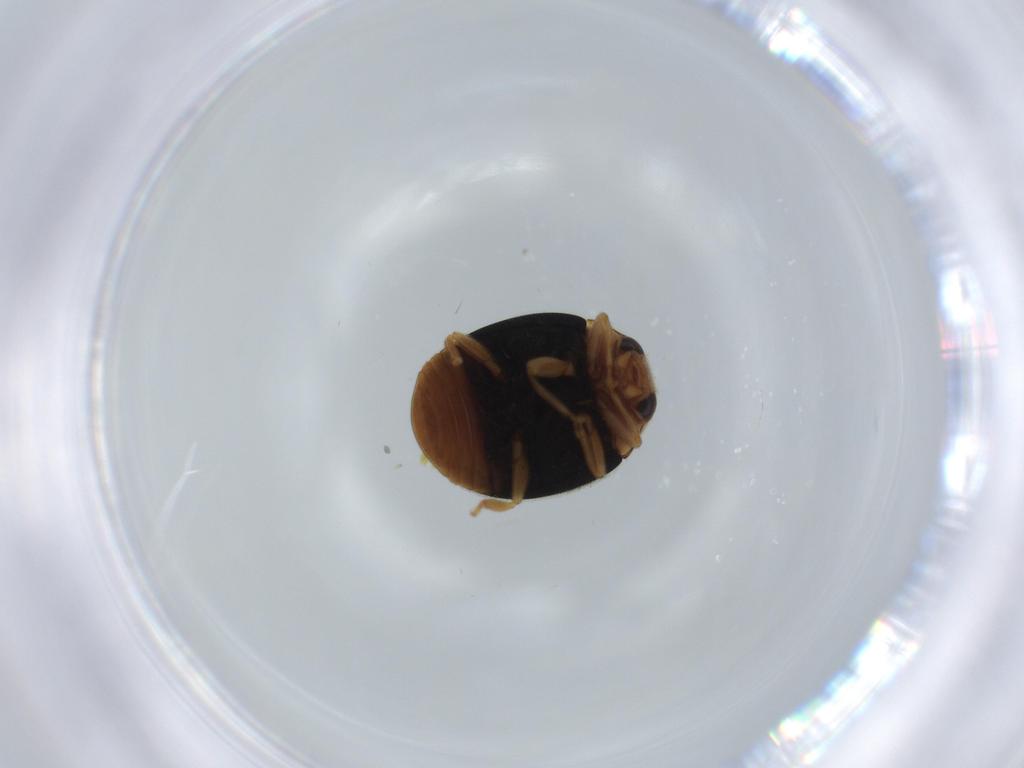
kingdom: Animalia
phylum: Arthropoda
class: Insecta
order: Coleoptera
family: Coccinellidae
